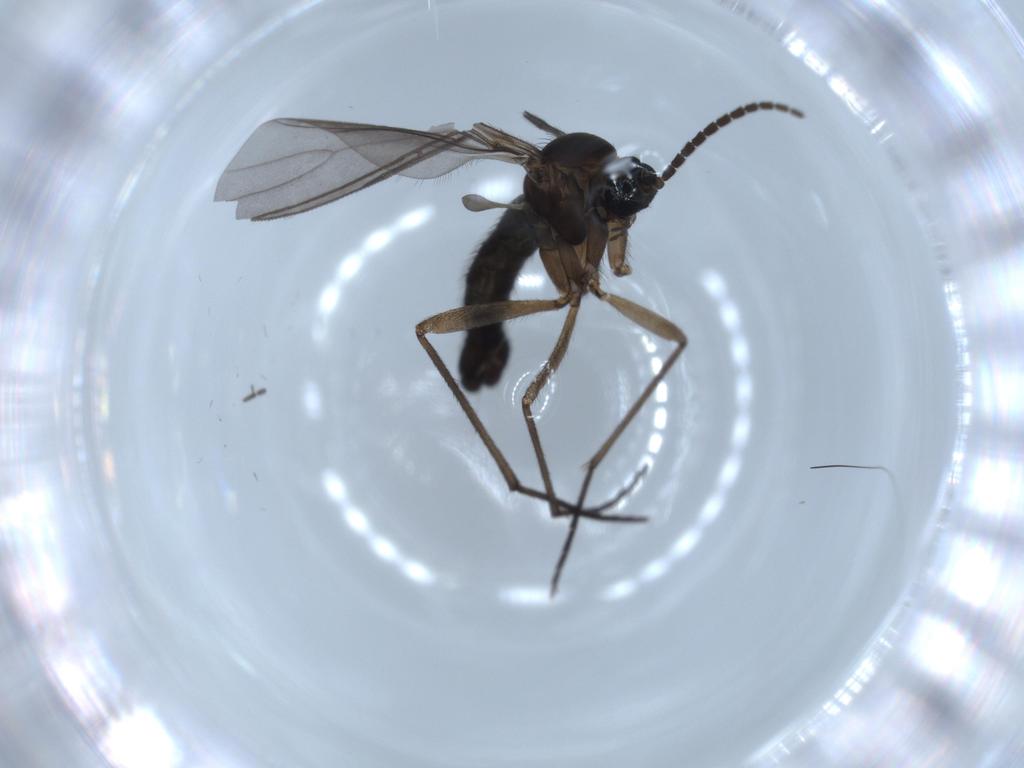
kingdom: Animalia
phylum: Arthropoda
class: Insecta
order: Diptera
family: Sciaridae
